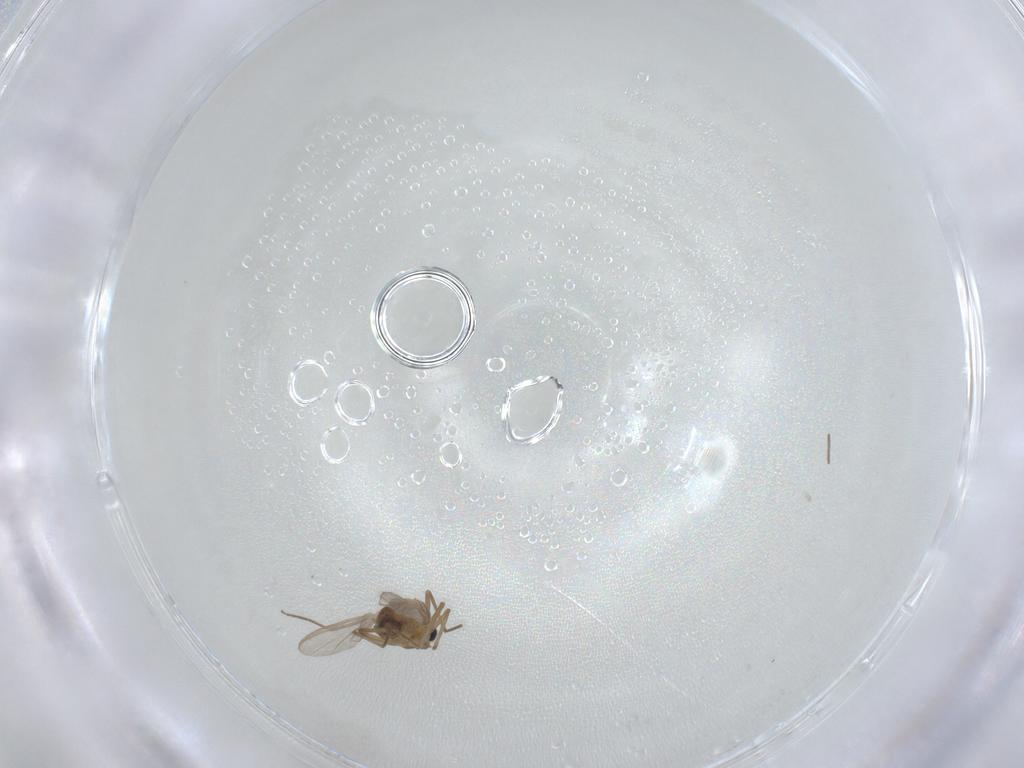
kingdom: Animalia
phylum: Arthropoda
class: Insecta
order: Diptera
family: Chironomidae
